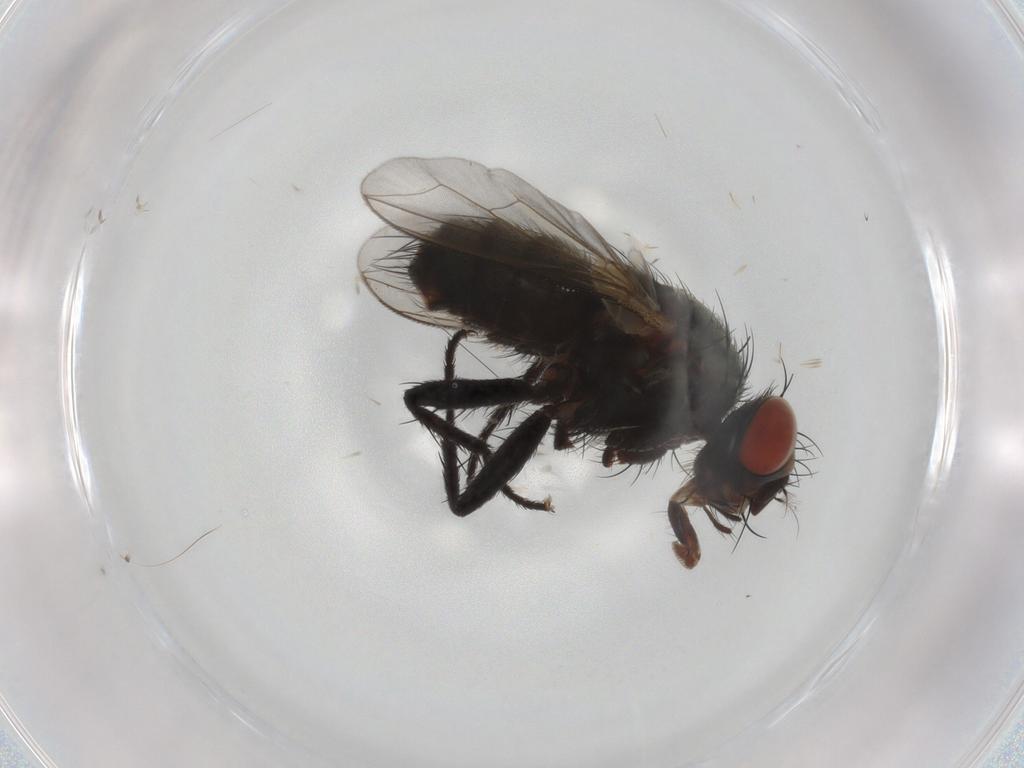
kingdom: Animalia
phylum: Arthropoda
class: Insecta
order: Diptera
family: Sarcophagidae
